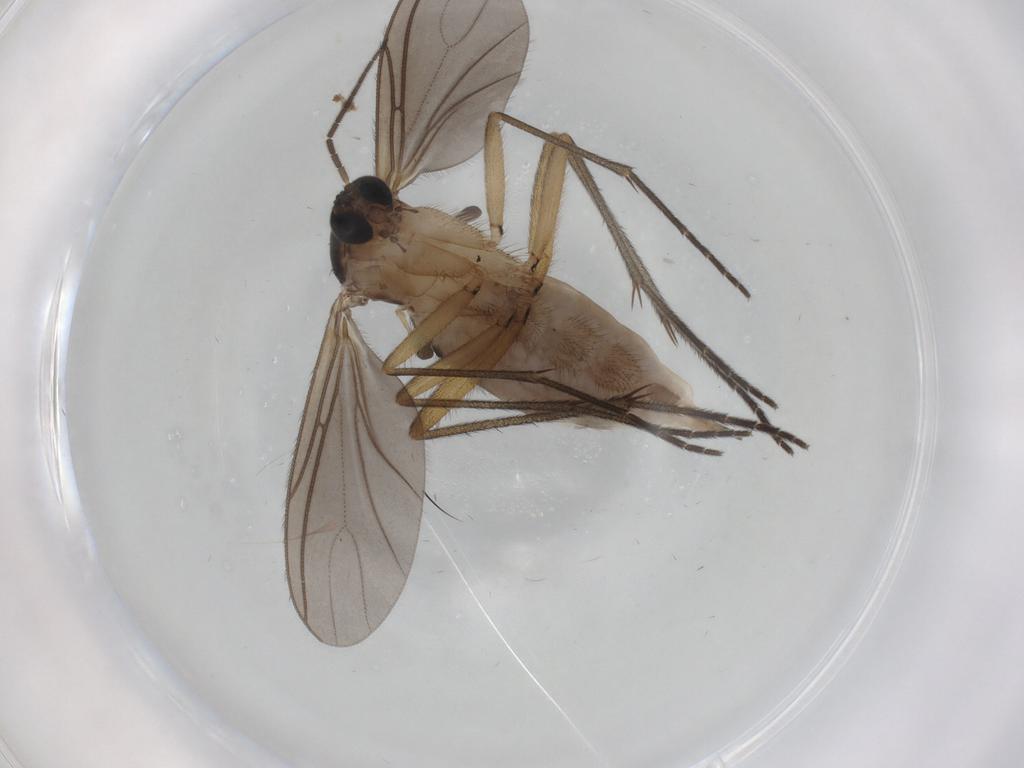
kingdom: Animalia
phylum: Arthropoda
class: Insecta
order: Diptera
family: Sciaridae
